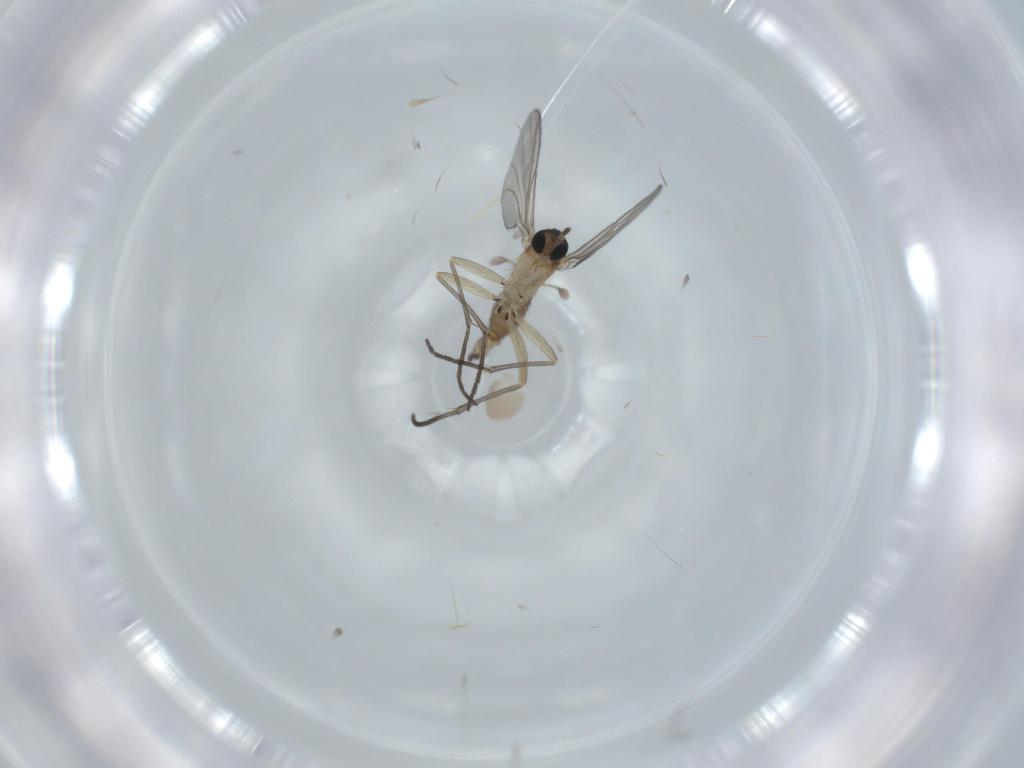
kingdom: Animalia
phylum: Arthropoda
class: Insecta
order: Diptera
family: Sciaridae
